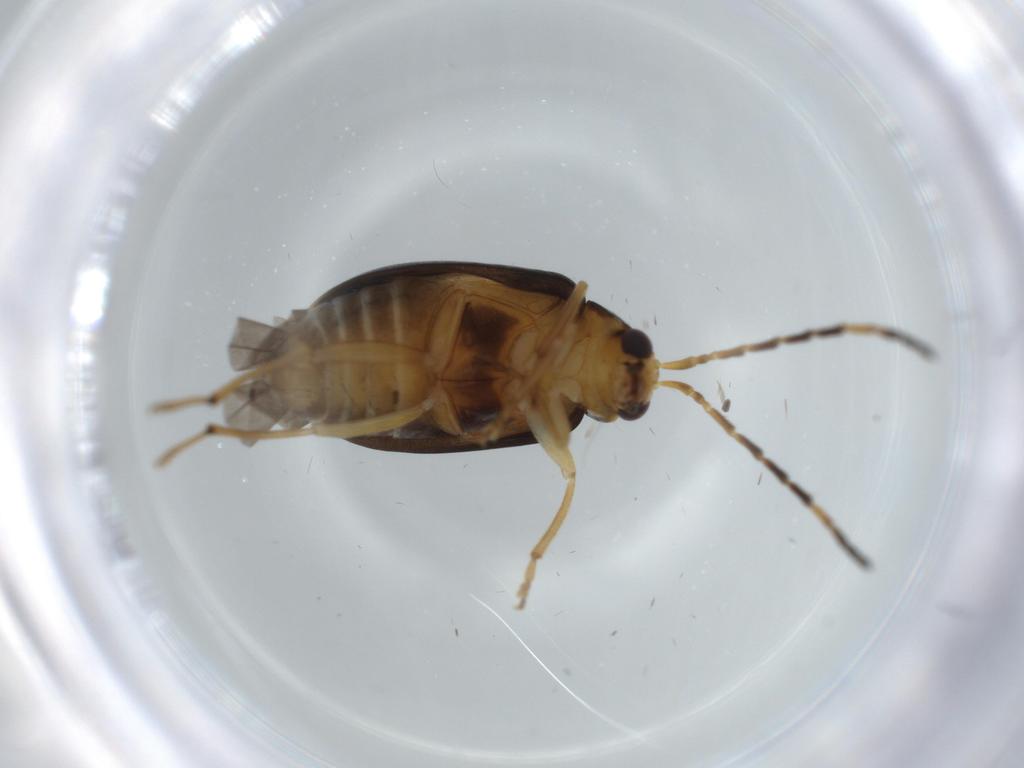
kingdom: Animalia
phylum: Arthropoda
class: Insecta
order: Coleoptera
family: Chrysomelidae
